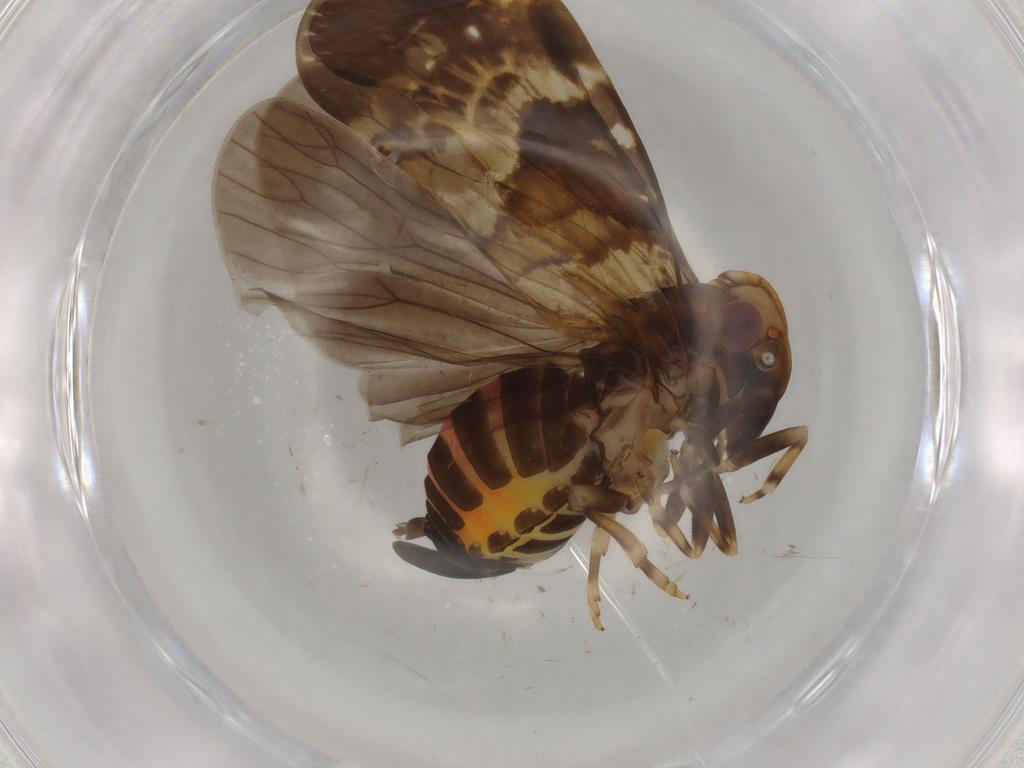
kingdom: Animalia
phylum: Arthropoda
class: Insecta
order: Hemiptera
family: Cixiidae
